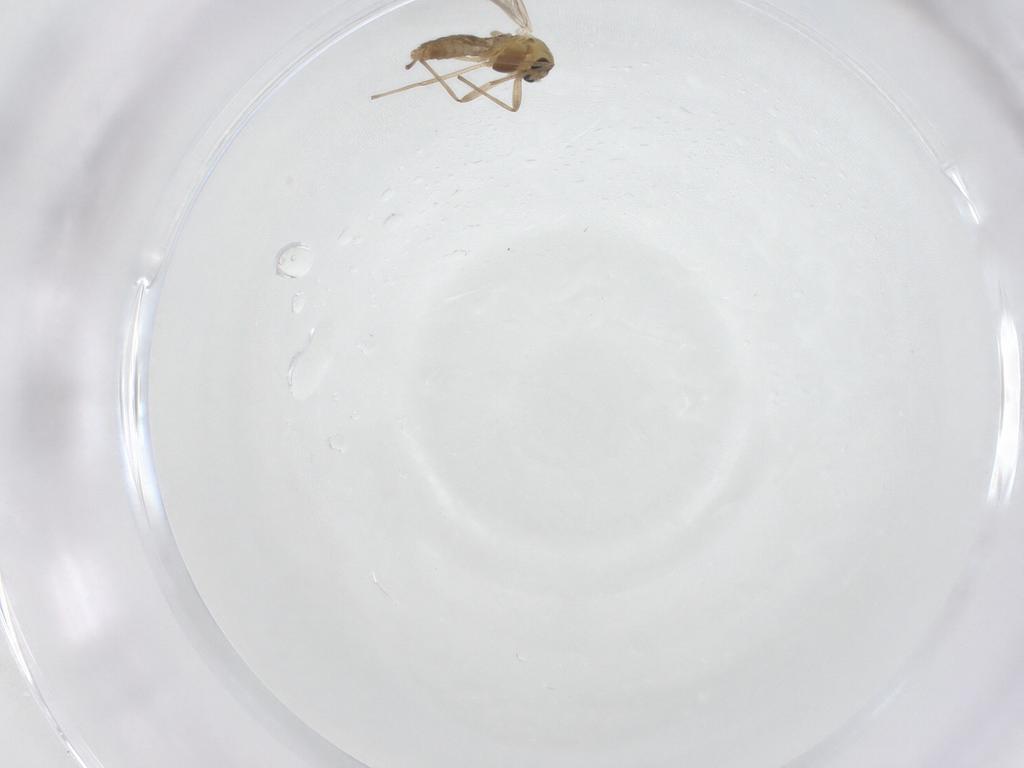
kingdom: Animalia
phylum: Arthropoda
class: Insecta
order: Diptera
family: Chironomidae
